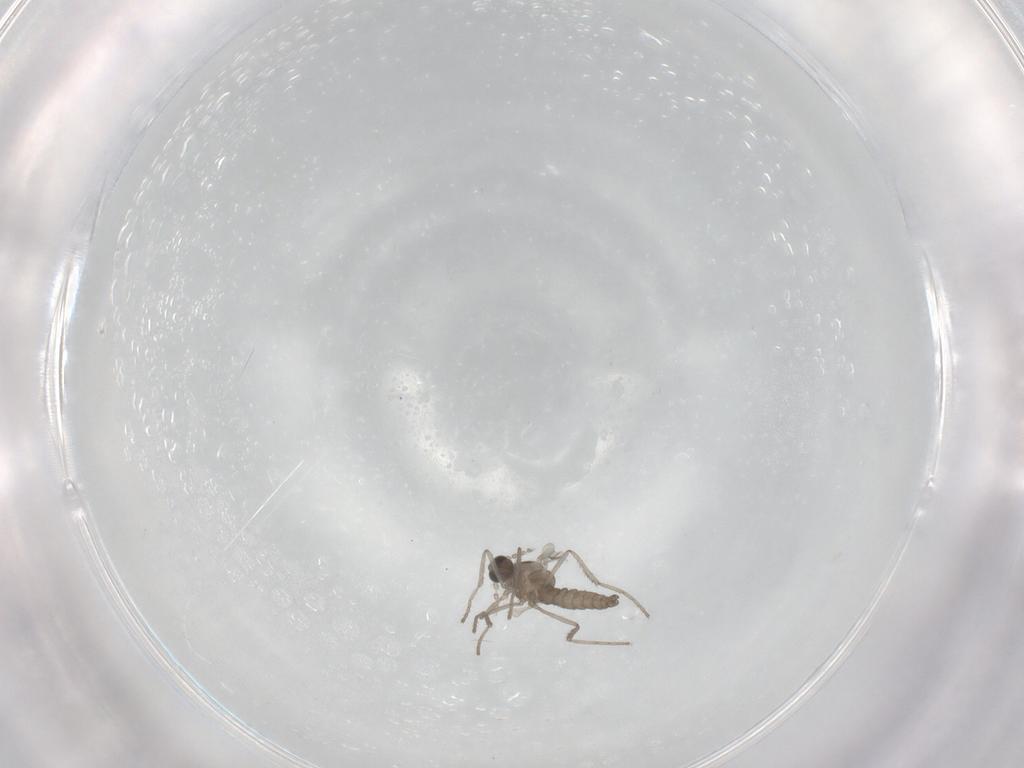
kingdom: Animalia
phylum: Arthropoda
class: Insecta
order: Diptera
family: Cecidomyiidae
